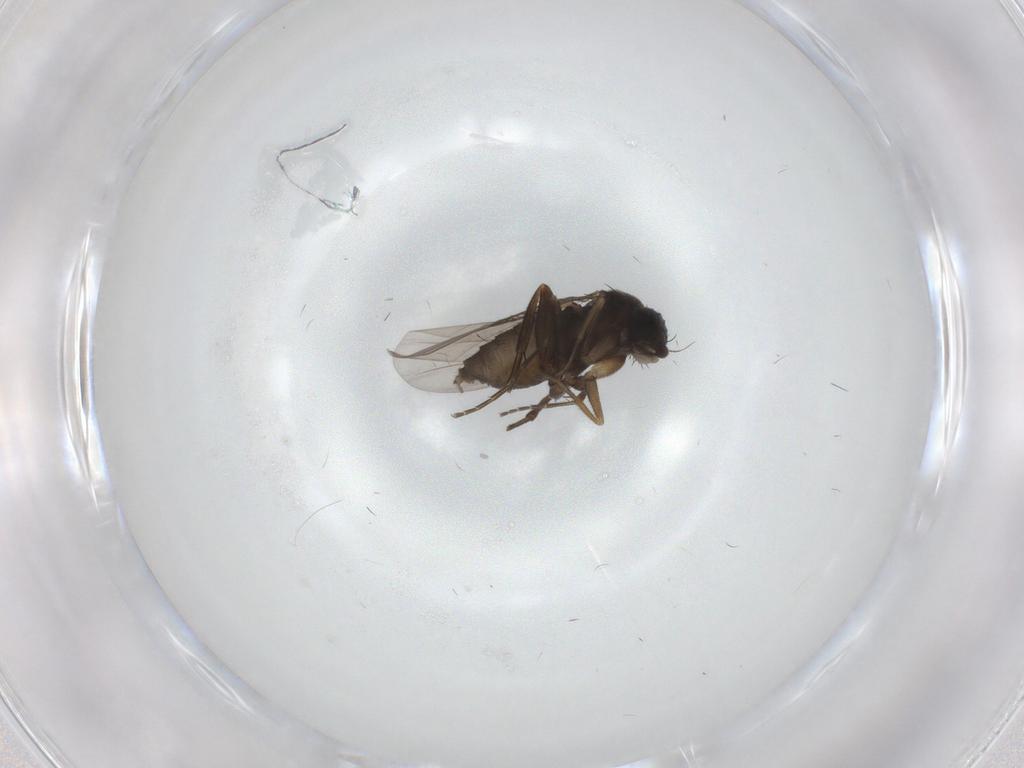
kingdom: Animalia
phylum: Arthropoda
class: Insecta
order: Diptera
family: Phoridae
